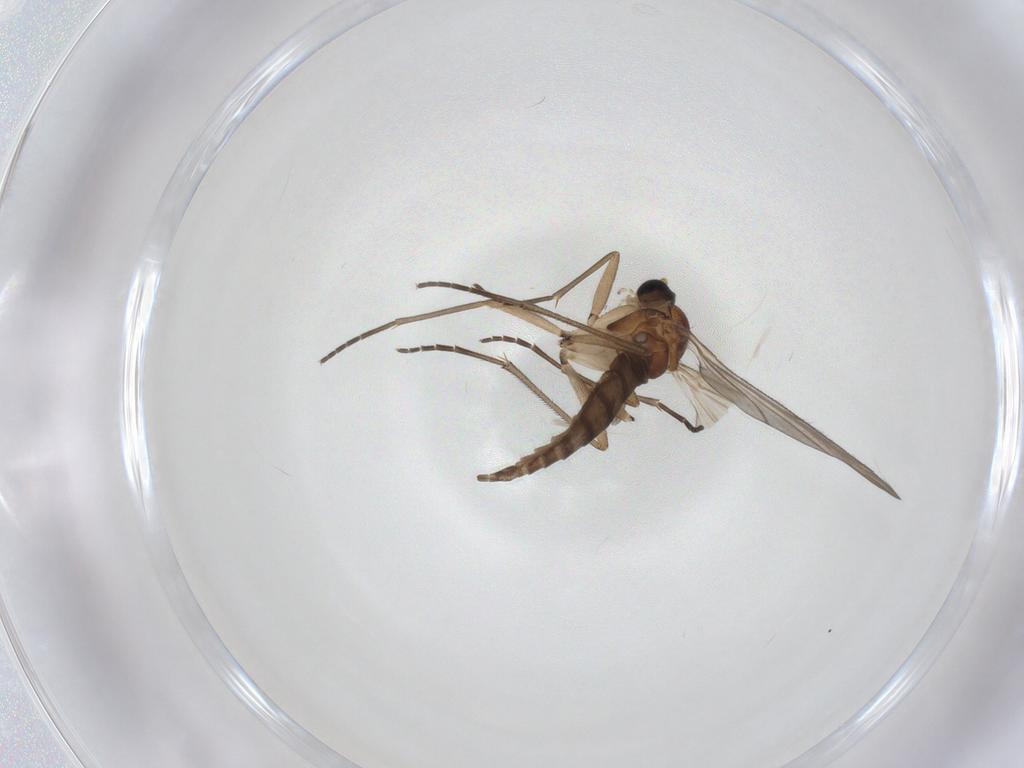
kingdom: Animalia
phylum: Arthropoda
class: Insecta
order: Diptera
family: Sciaridae
